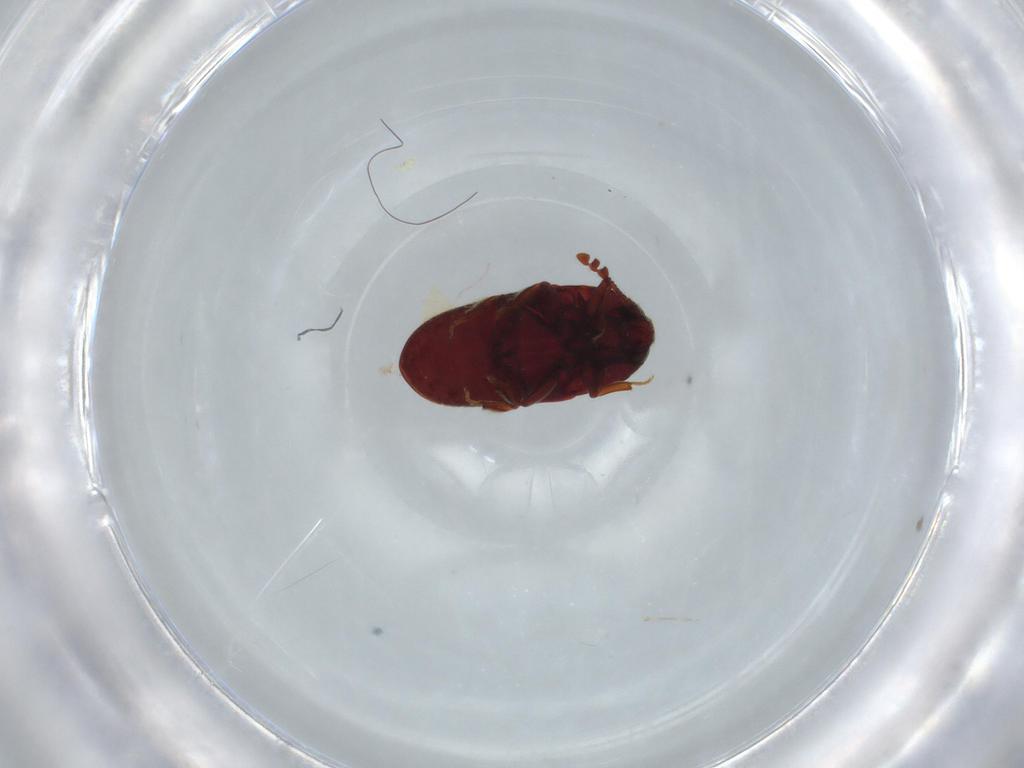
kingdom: Animalia
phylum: Arthropoda
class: Insecta
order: Coleoptera
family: Throscidae
